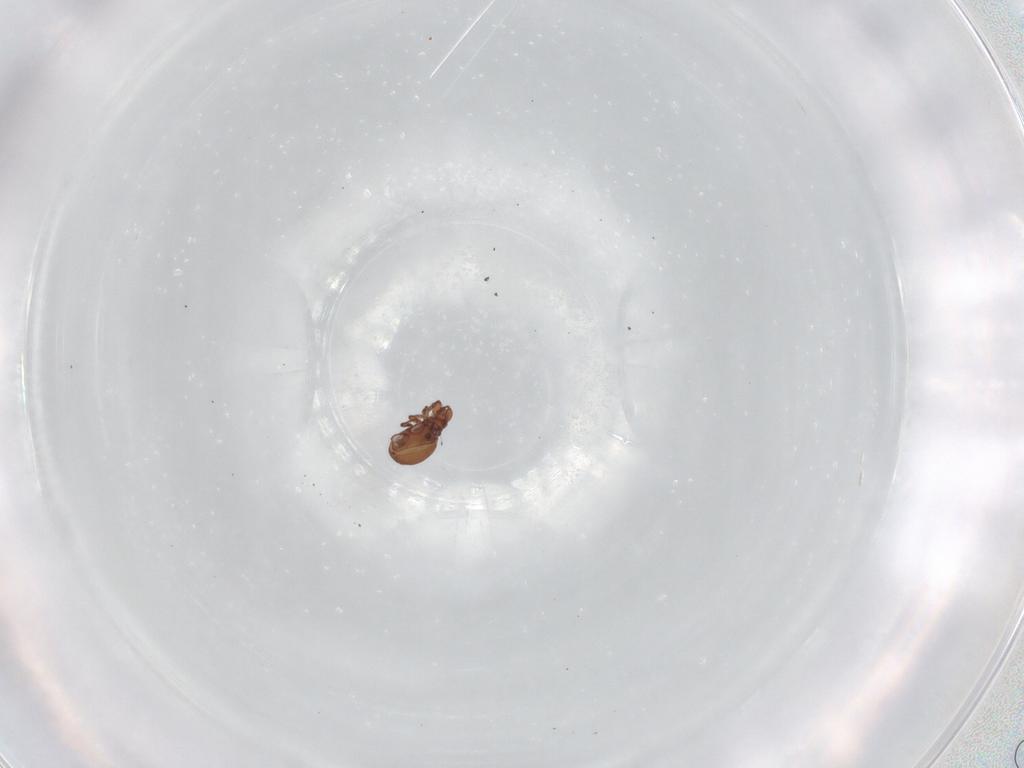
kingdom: Animalia
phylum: Arthropoda
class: Arachnida
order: Sarcoptiformes
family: Eremaeidae
